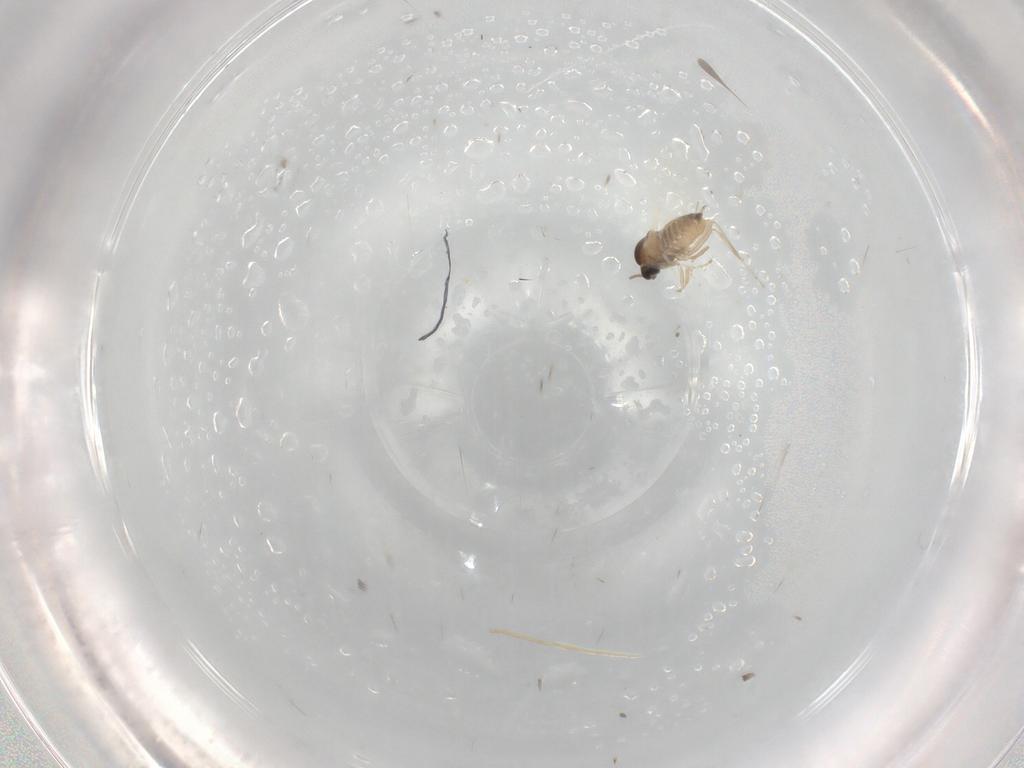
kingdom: Animalia
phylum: Arthropoda
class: Insecta
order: Diptera
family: Cecidomyiidae
